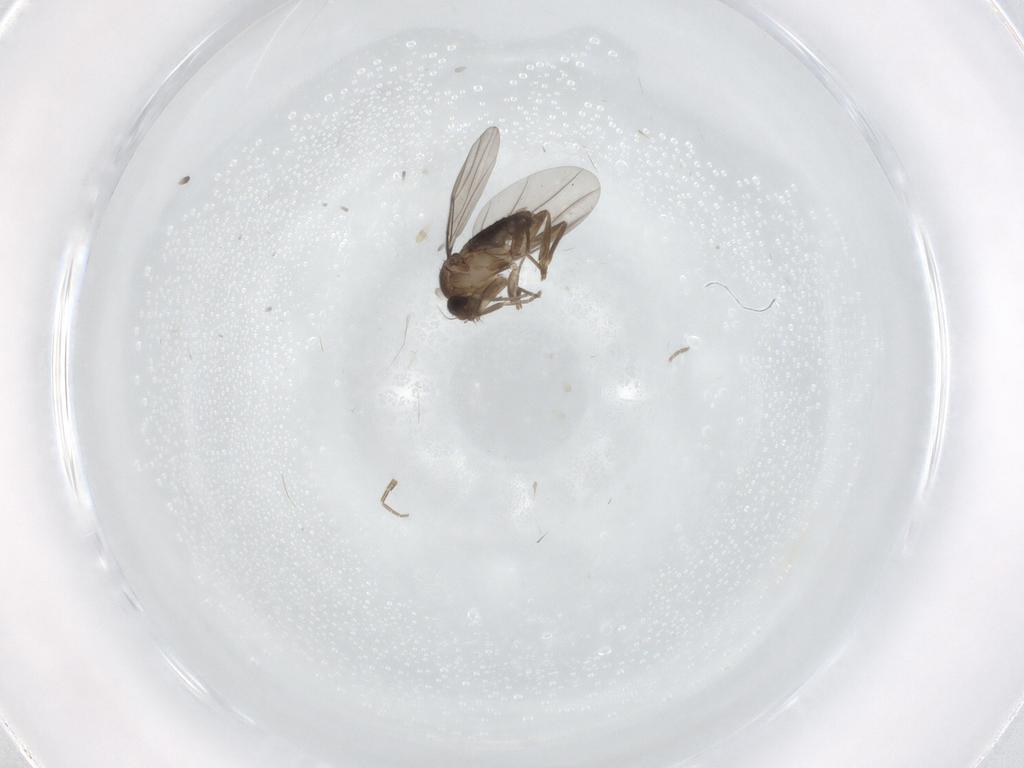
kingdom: Animalia
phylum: Arthropoda
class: Insecta
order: Diptera
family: Phoridae
